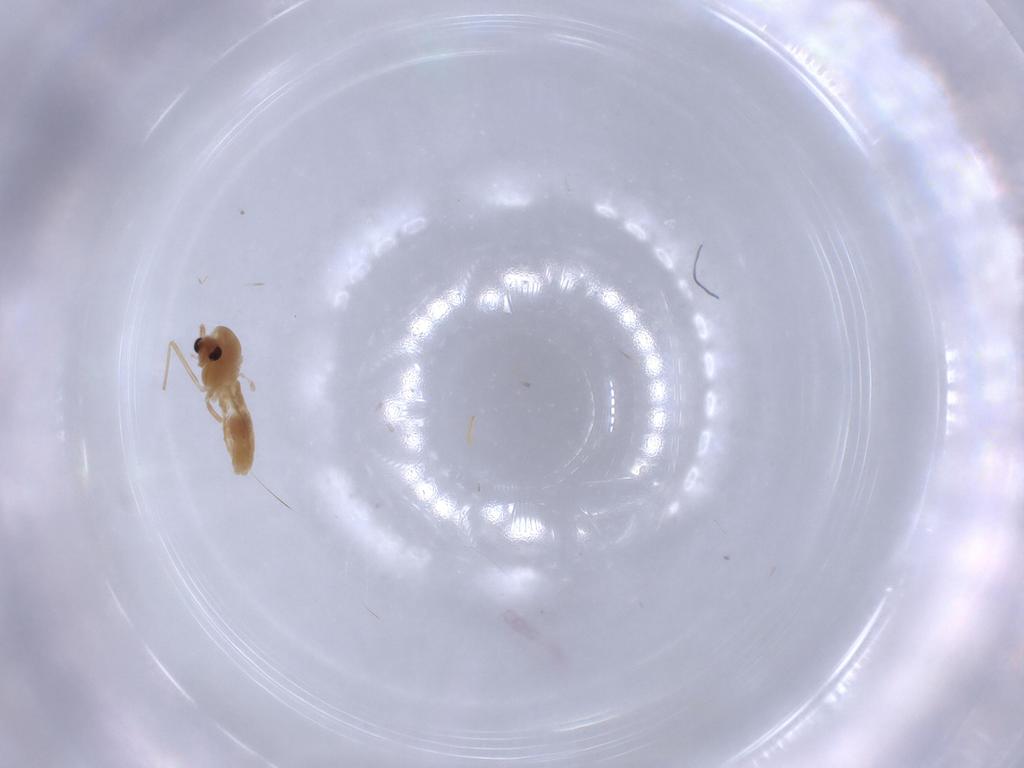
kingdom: Animalia
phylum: Arthropoda
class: Insecta
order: Diptera
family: Chironomidae
